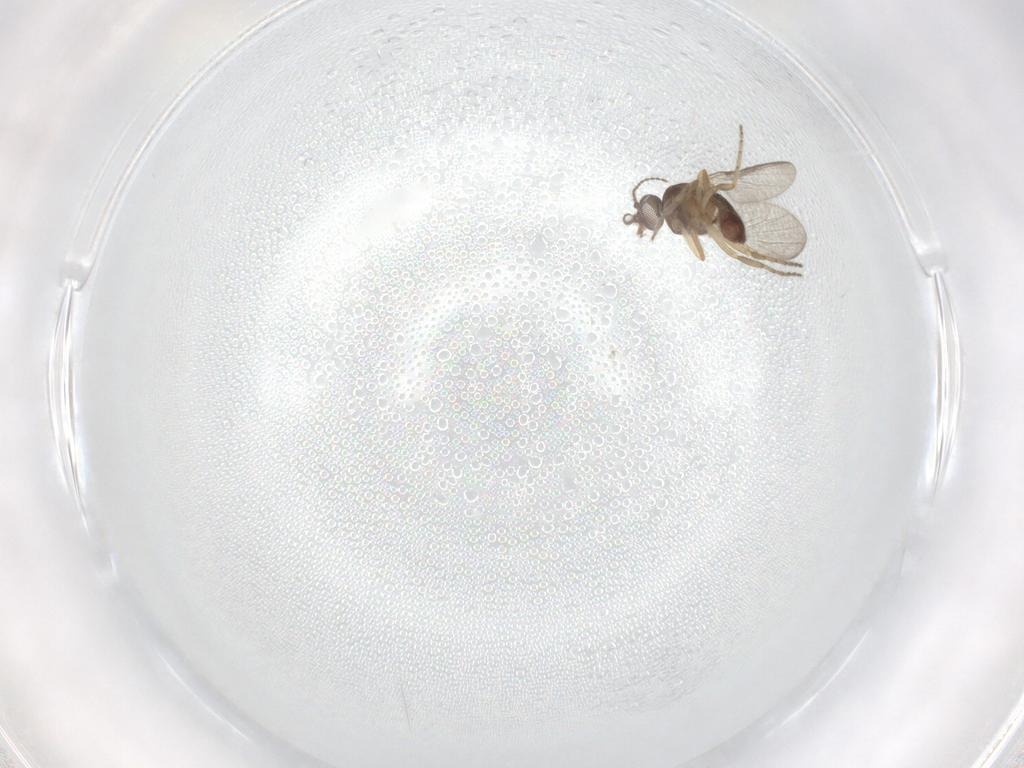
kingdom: Animalia
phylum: Arthropoda
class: Insecta
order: Diptera
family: Ceratopogonidae
